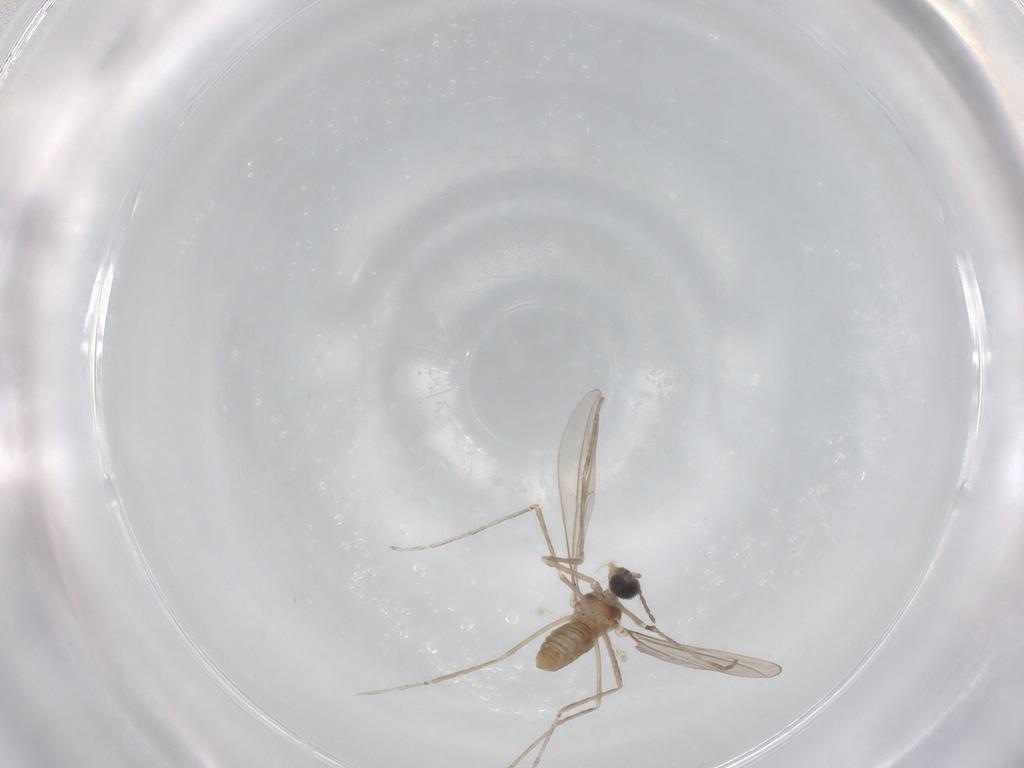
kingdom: Animalia
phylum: Arthropoda
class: Insecta
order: Diptera
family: Cecidomyiidae
